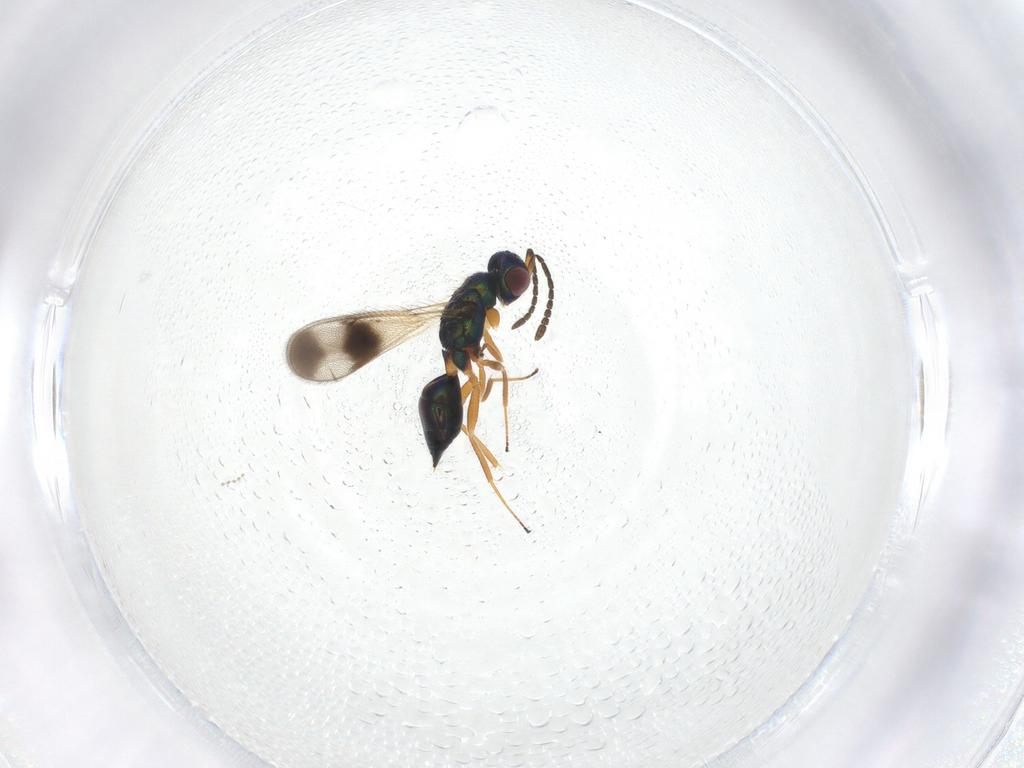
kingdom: Animalia
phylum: Arthropoda
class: Insecta
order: Hymenoptera
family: Tetracampidae
